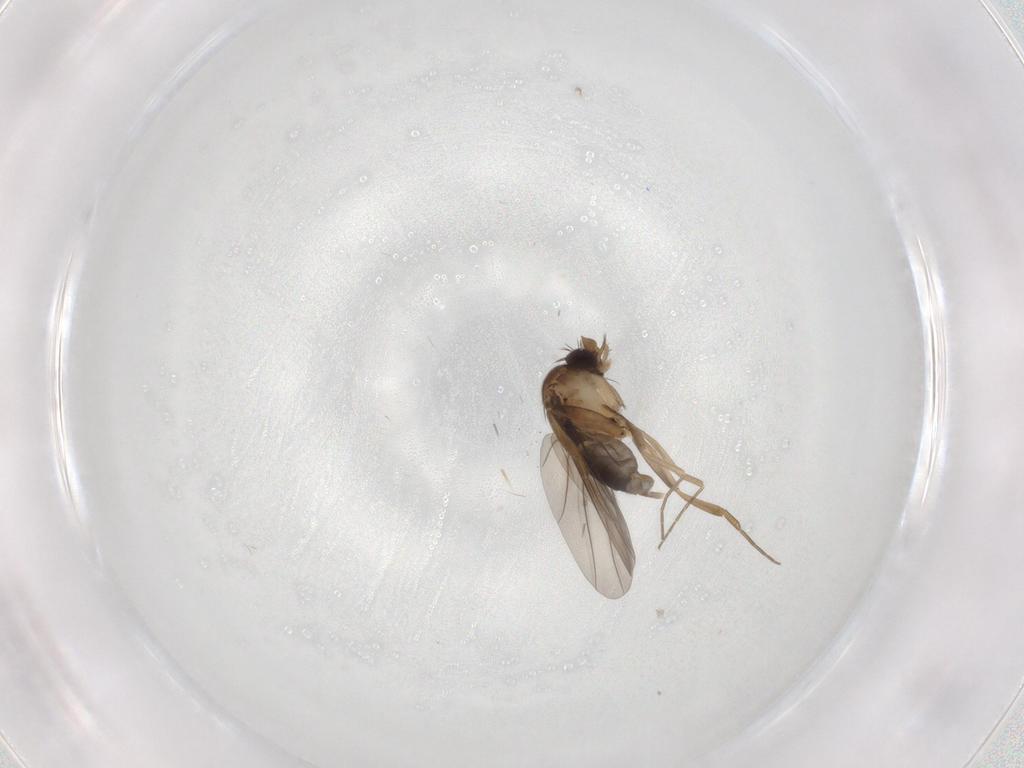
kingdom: Animalia
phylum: Arthropoda
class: Insecta
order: Diptera
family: Phoridae
